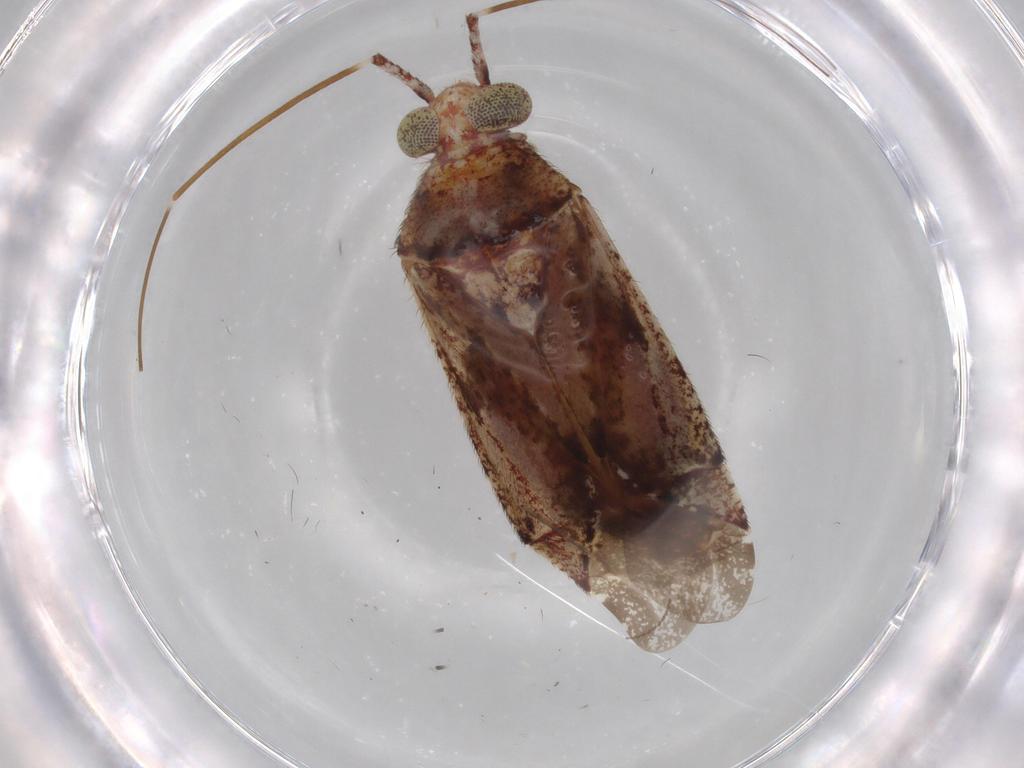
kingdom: Animalia
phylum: Arthropoda
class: Insecta
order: Hemiptera
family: Miridae
